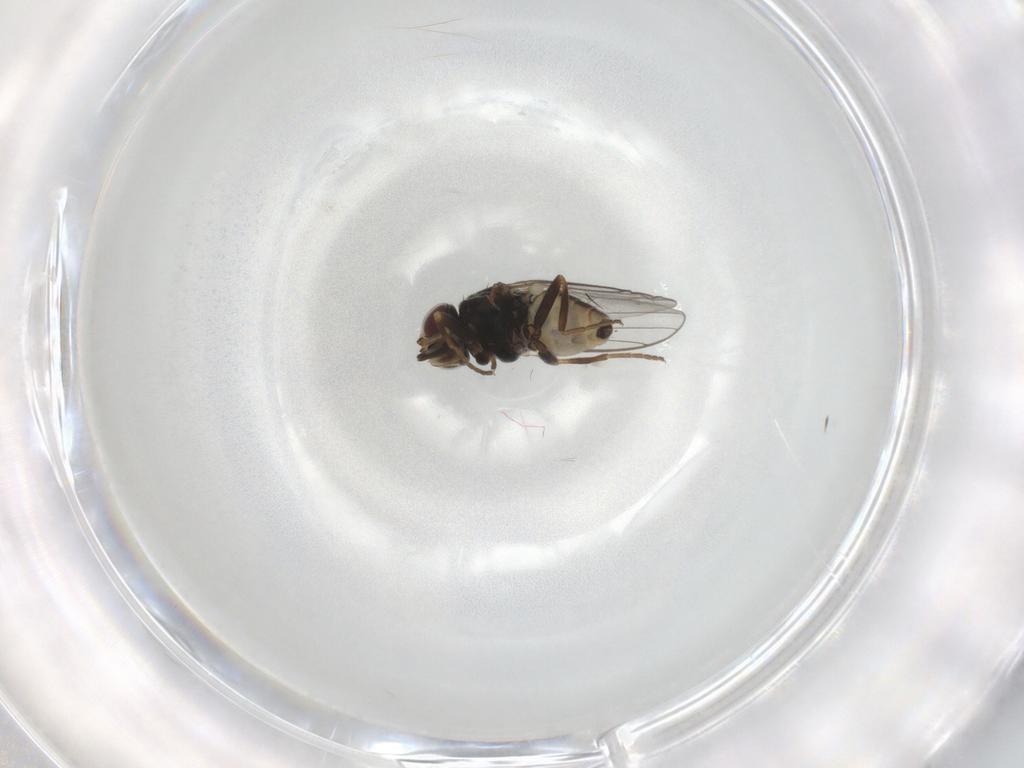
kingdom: Animalia
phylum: Arthropoda
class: Insecta
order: Diptera
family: Chloropidae
